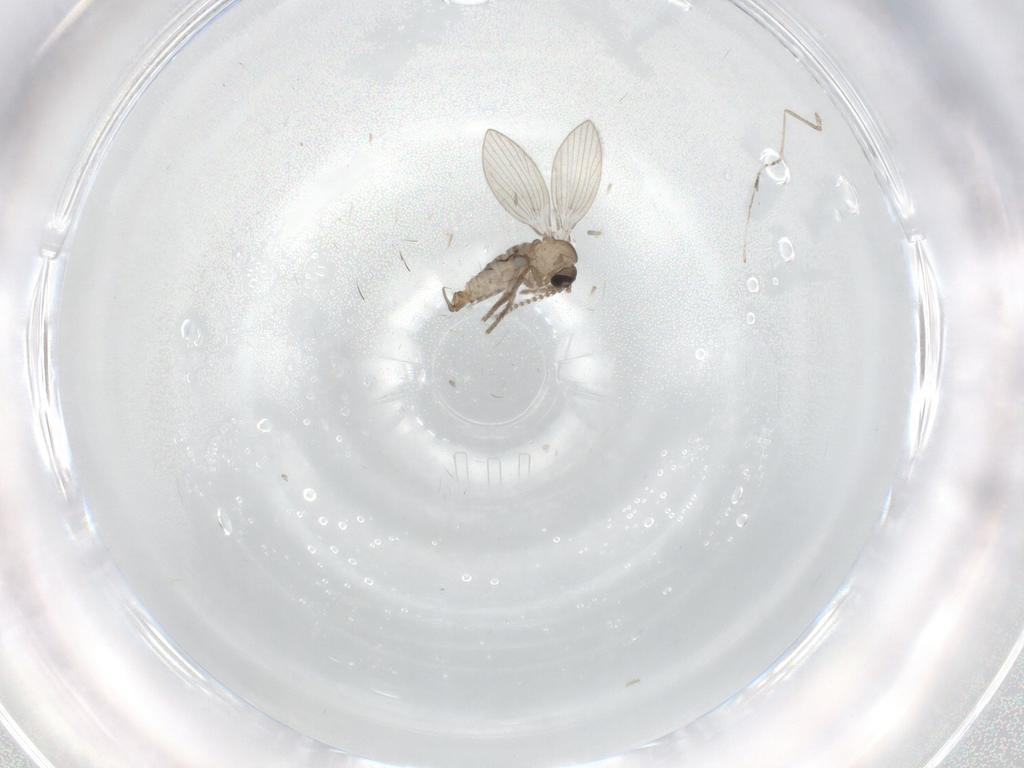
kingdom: Animalia
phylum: Arthropoda
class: Insecta
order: Diptera
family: Psychodidae
